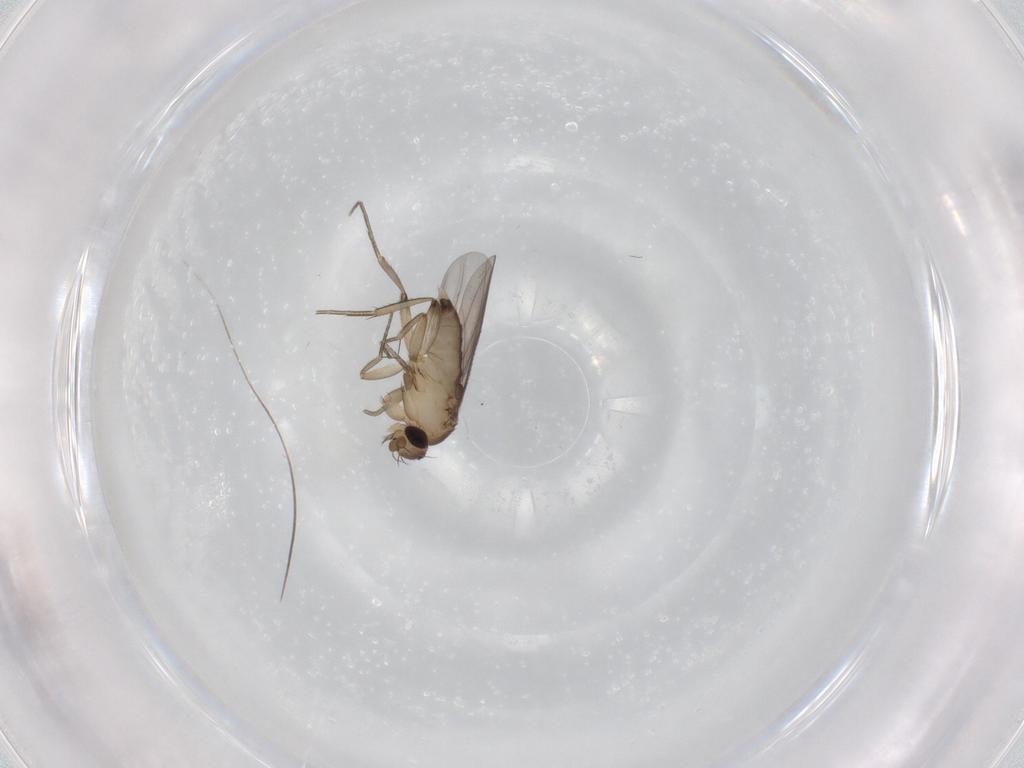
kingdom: Animalia
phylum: Arthropoda
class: Insecta
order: Diptera
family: Phoridae
